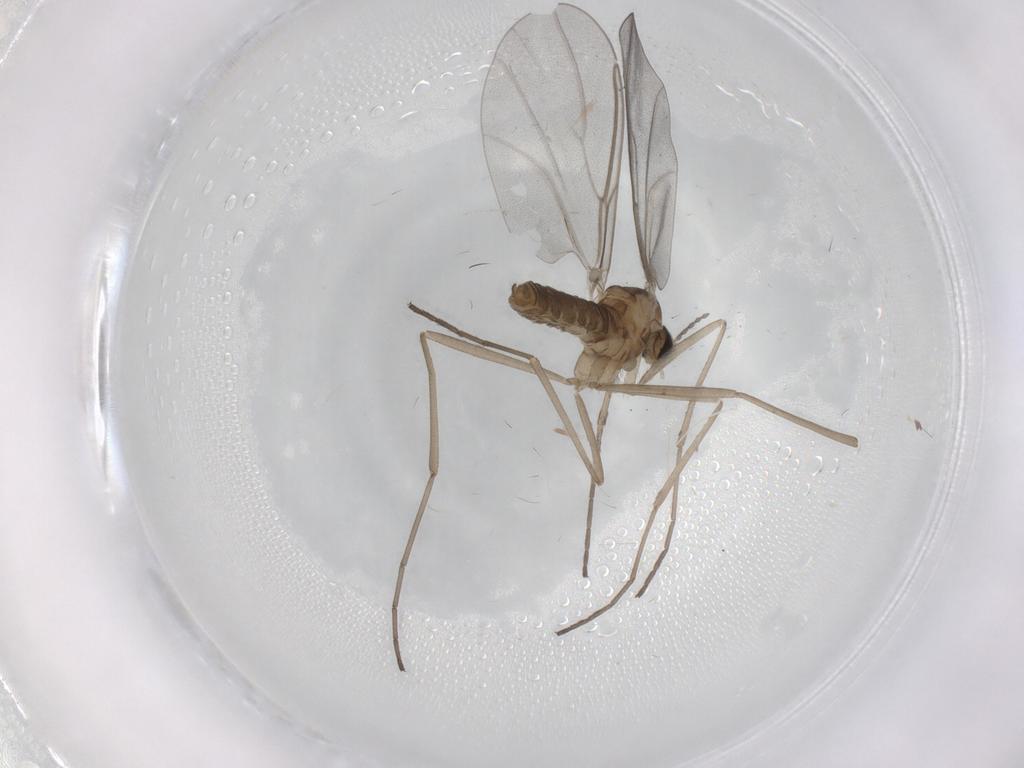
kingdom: Animalia
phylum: Arthropoda
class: Insecta
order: Diptera
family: Cecidomyiidae
